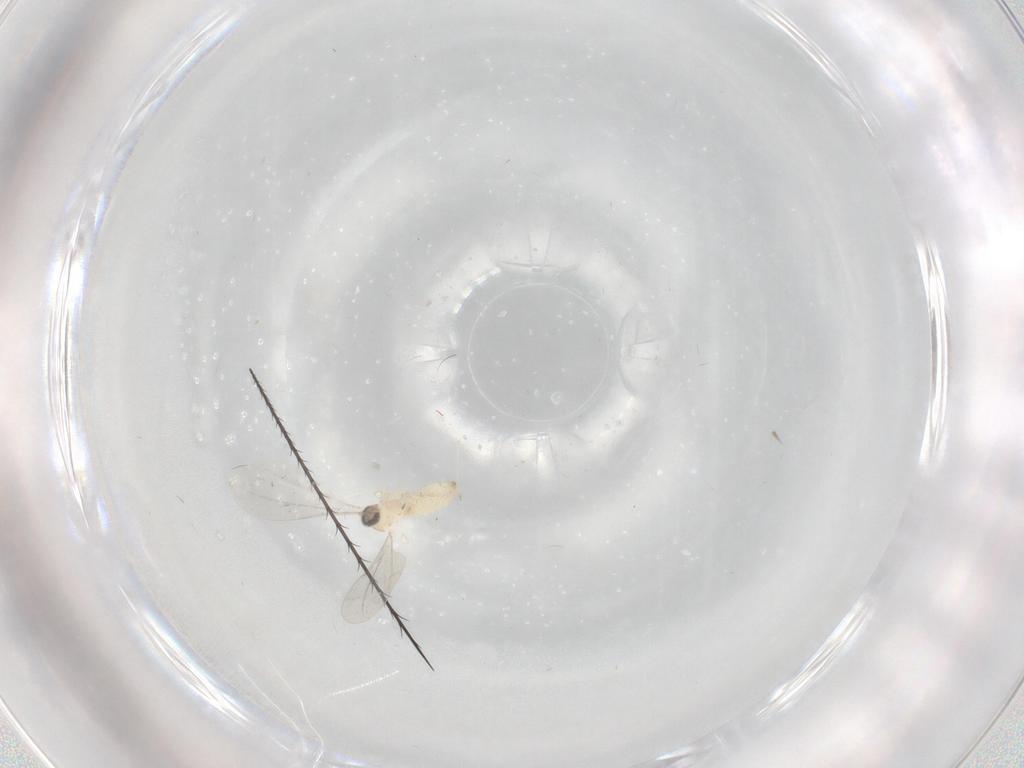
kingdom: Animalia
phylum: Arthropoda
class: Insecta
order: Diptera
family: Cecidomyiidae
